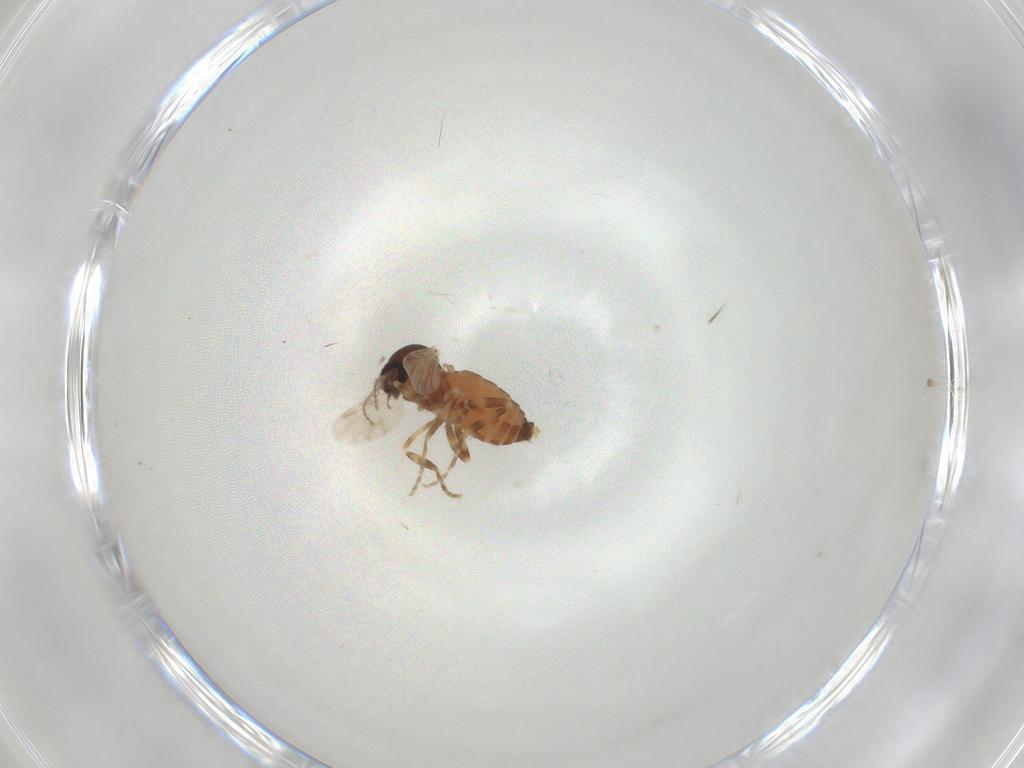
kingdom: Animalia
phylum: Arthropoda
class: Insecta
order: Diptera
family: Ceratopogonidae
